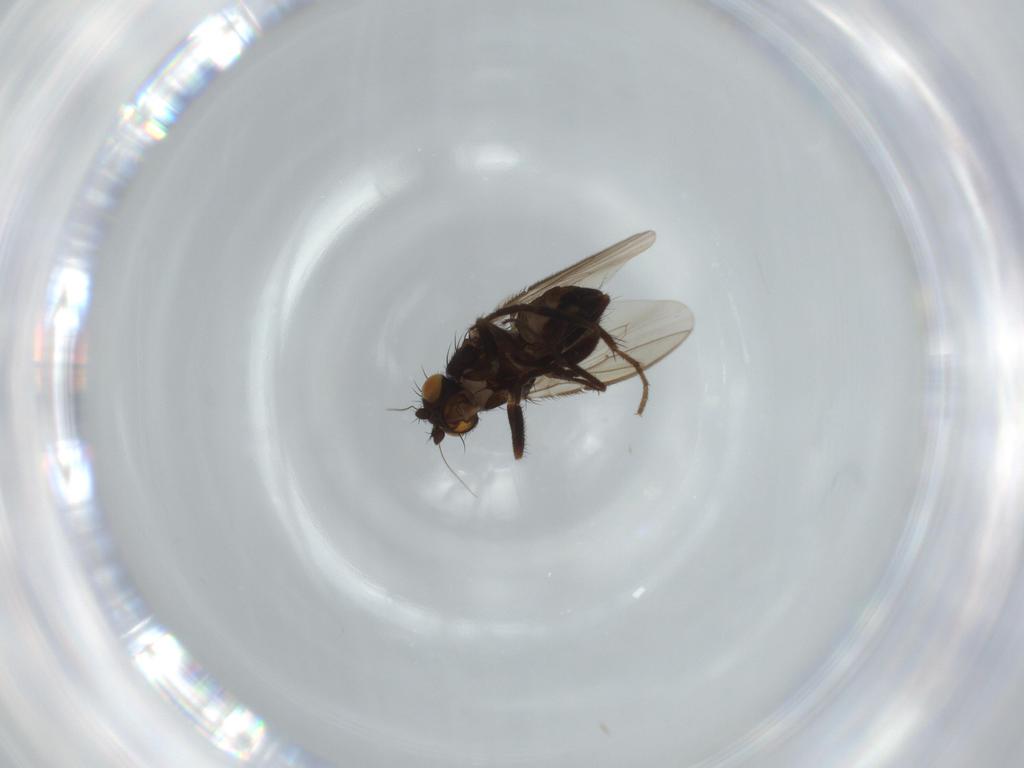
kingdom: Animalia
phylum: Arthropoda
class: Insecta
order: Diptera
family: Sphaeroceridae
